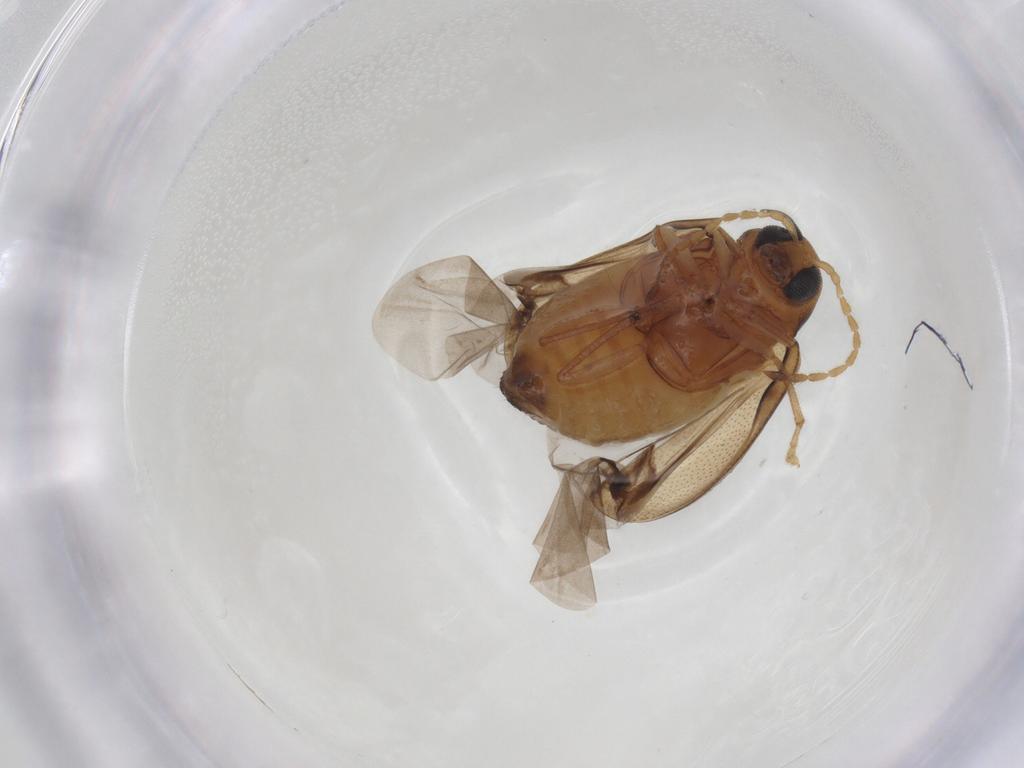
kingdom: Animalia
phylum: Arthropoda
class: Insecta
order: Coleoptera
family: Chrysomelidae
